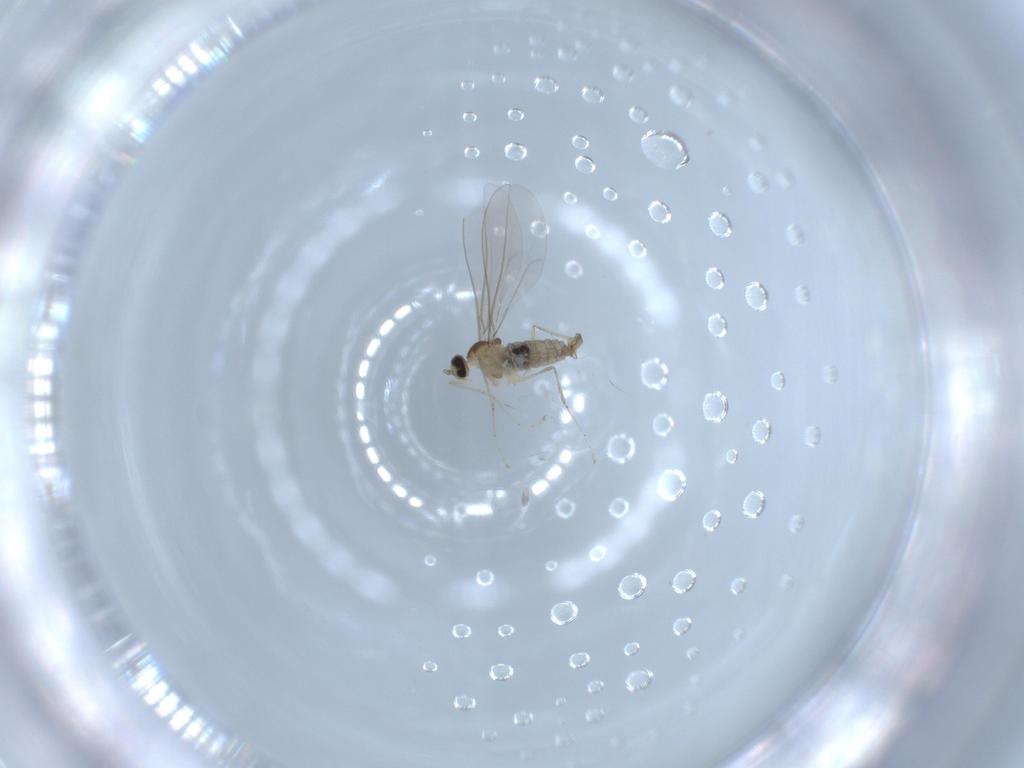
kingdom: Animalia
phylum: Arthropoda
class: Insecta
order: Diptera
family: Cecidomyiidae
